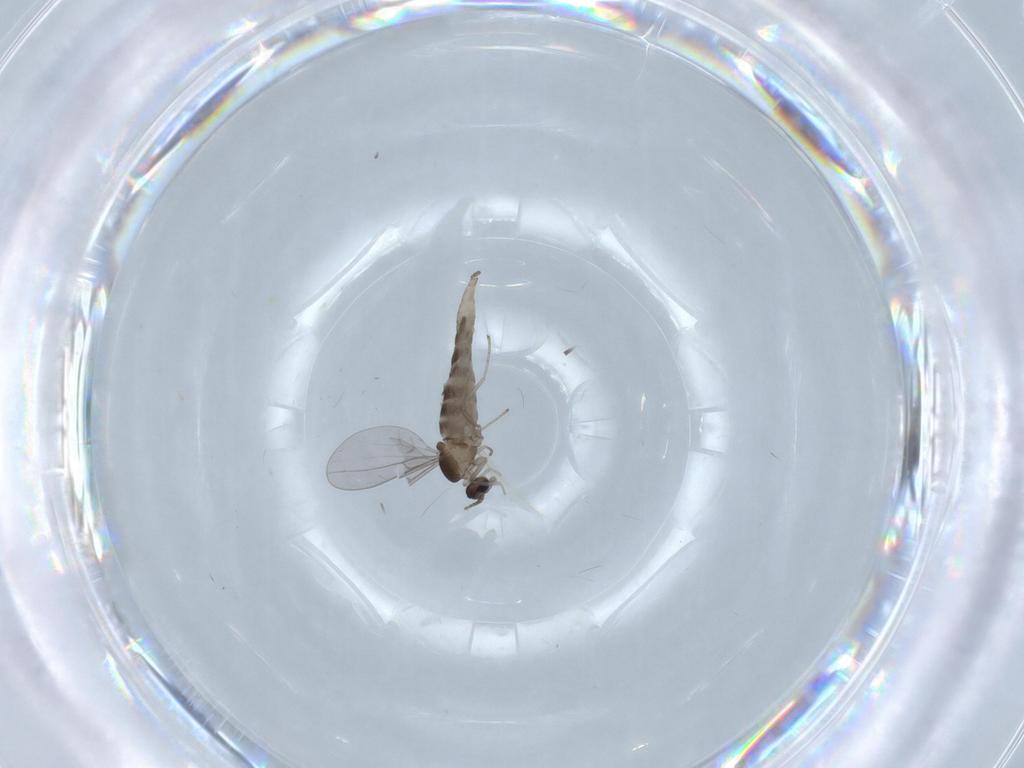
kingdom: Animalia
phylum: Arthropoda
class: Insecta
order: Diptera
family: Cecidomyiidae
